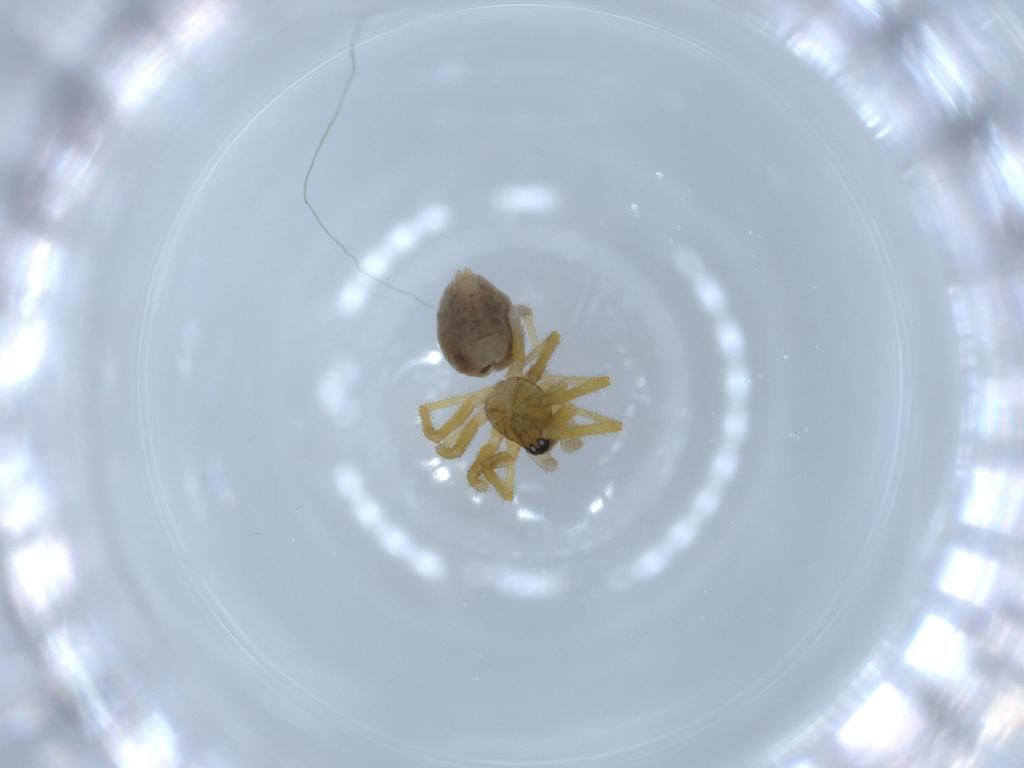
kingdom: Animalia
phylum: Arthropoda
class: Arachnida
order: Araneae
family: Linyphiidae
